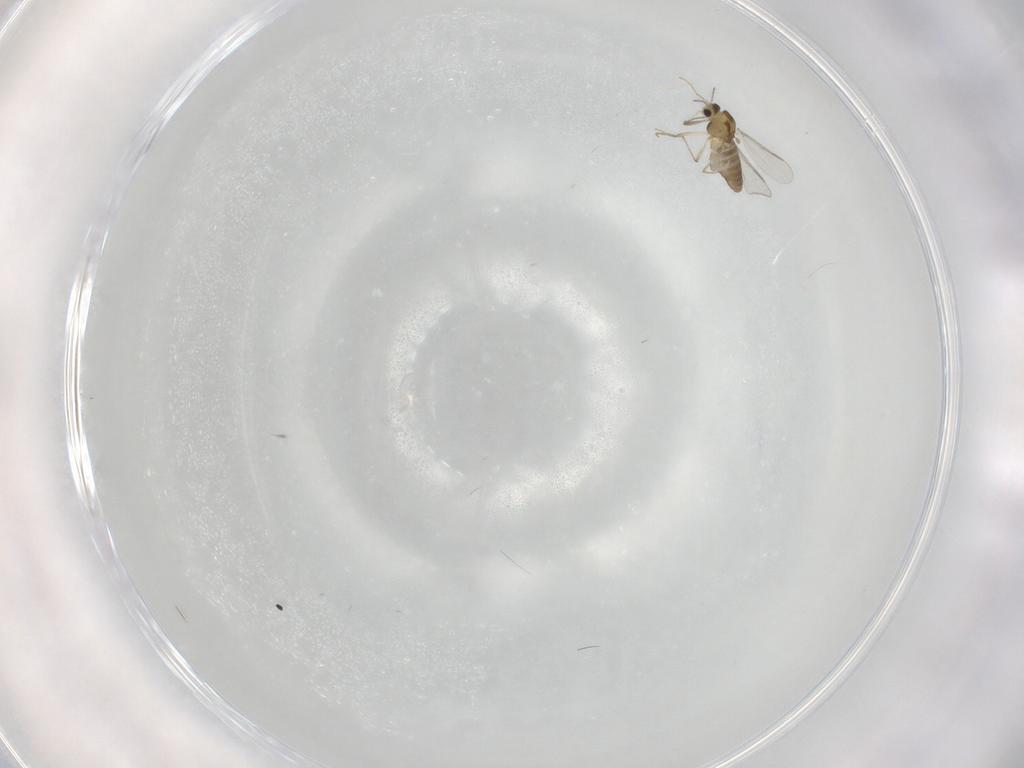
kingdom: Animalia
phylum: Arthropoda
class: Insecta
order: Diptera
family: Chironomidae
